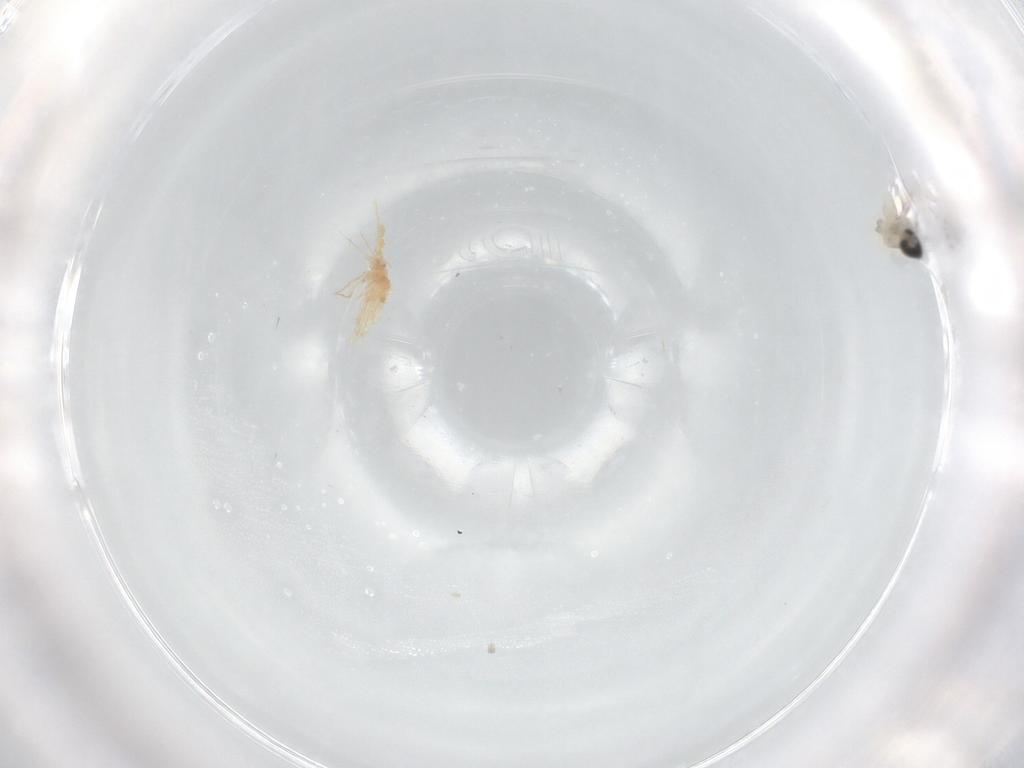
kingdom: Animalia
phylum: Arthropoda
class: Insecta
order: Diptera
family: Cecidomyiidae
